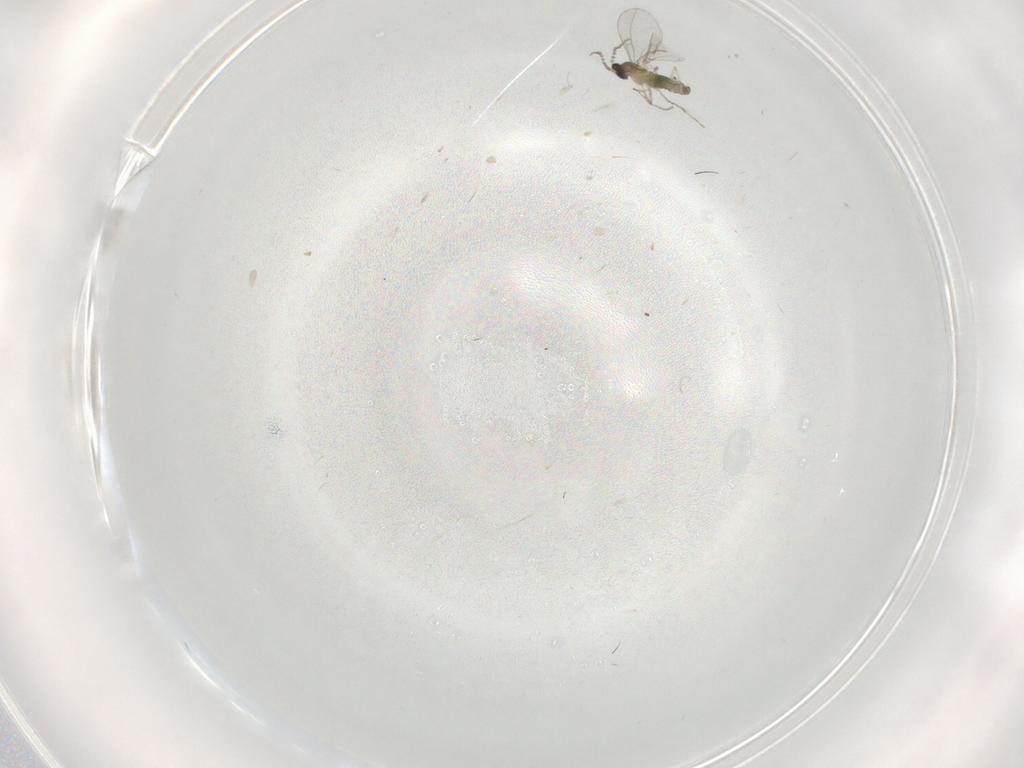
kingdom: Animalia
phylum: Arthropoda
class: Insecta
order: Diptera
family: Cecidomyiidae
